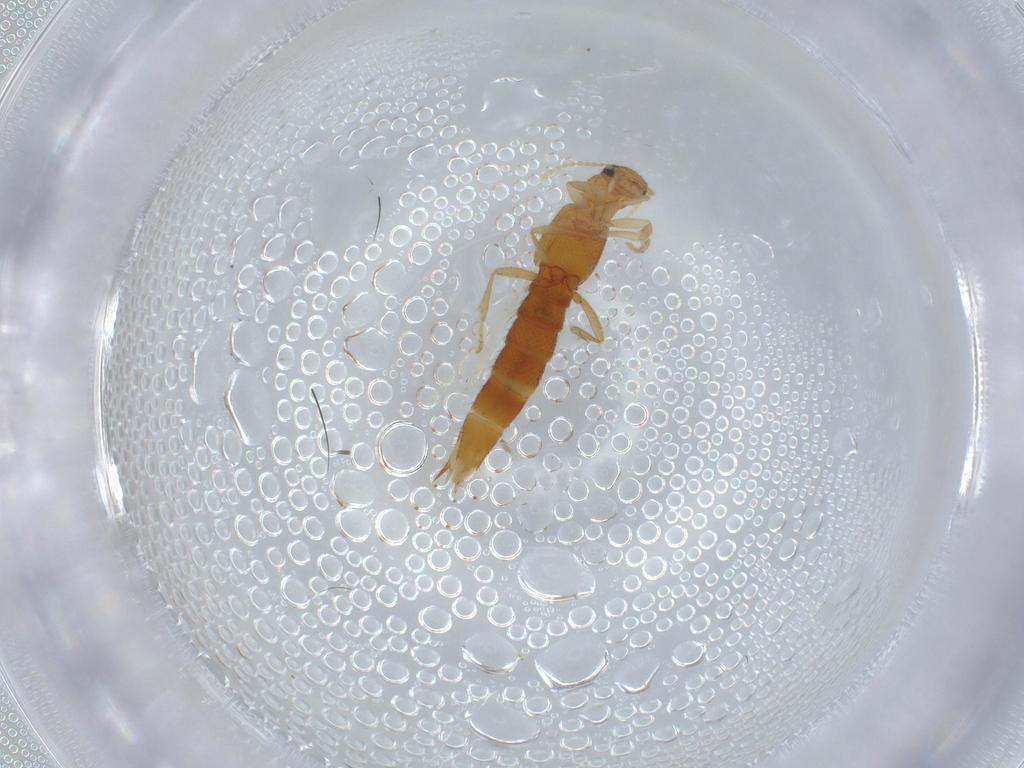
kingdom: Animalia
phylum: Arthropoda
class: Insecta
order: Coleoptera
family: Staphylinidae
